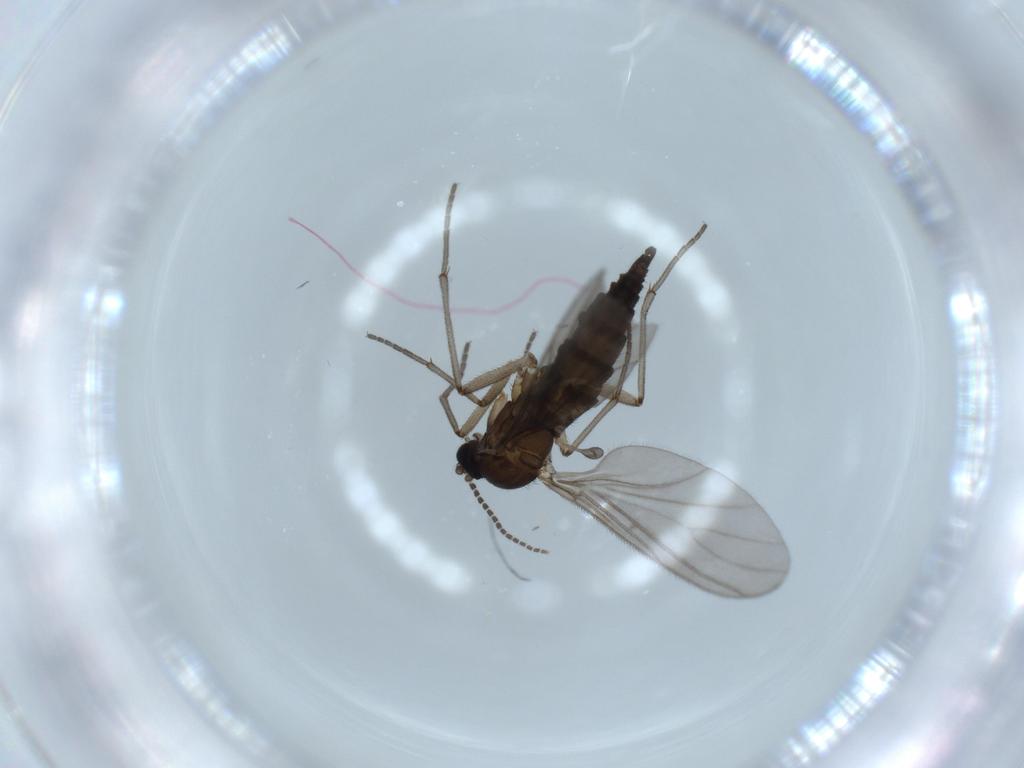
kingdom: Animalia
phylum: Arthropoda
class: Insecta
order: Diptera
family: Sciaridae
